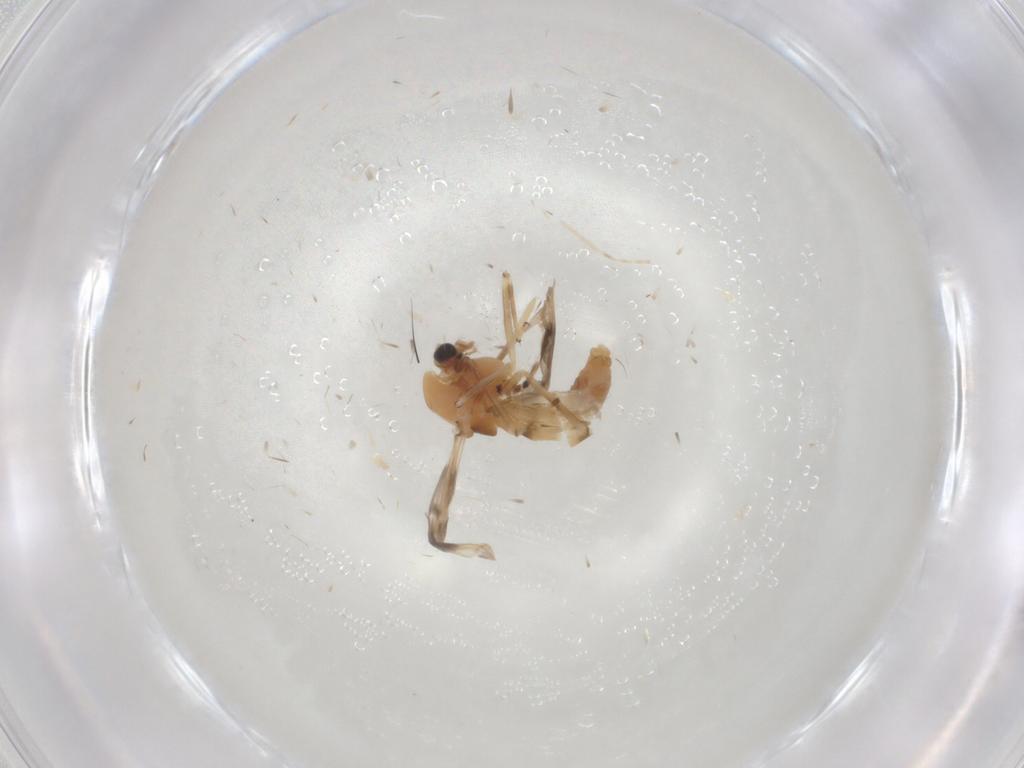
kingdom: Animalia
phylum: Arthropoda
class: Insecta
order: Diptera
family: Chironomidae
